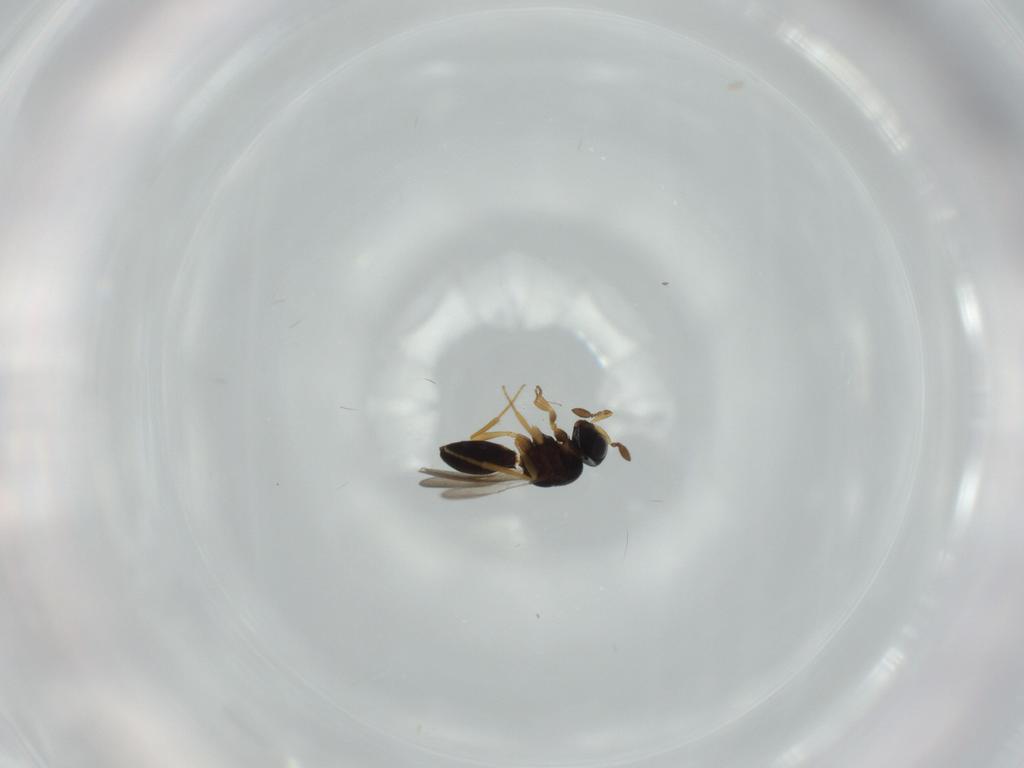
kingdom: Animalia
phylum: Arthropoda
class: Insecta
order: Hymenoptera
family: Scelionidae
